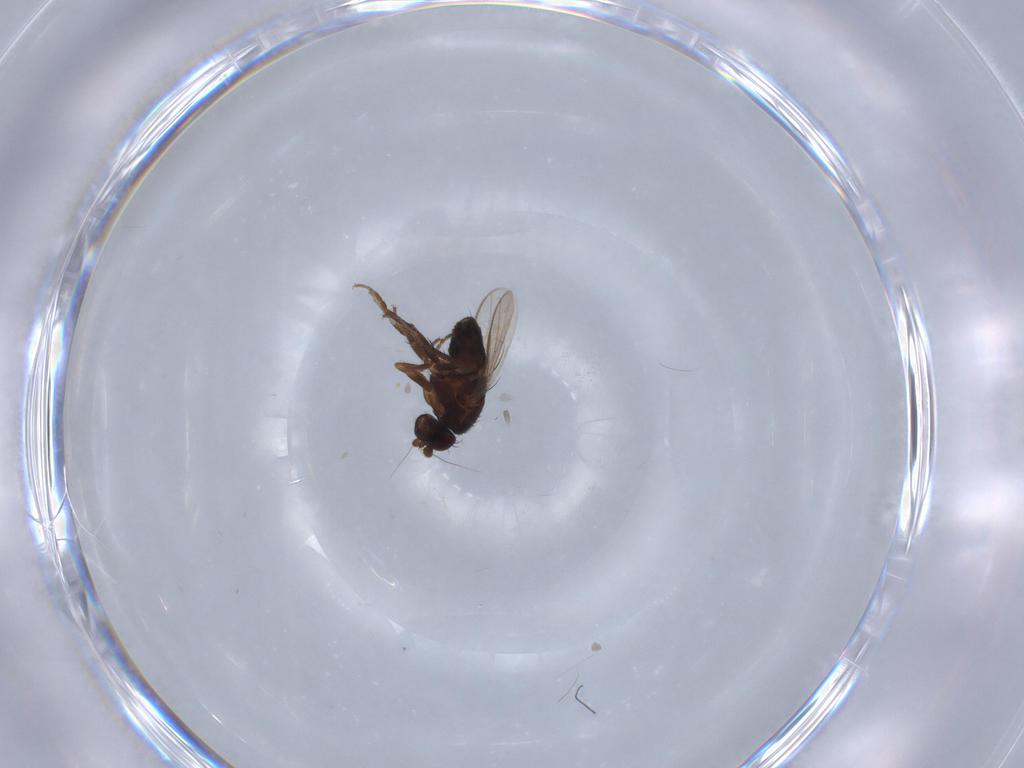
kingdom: Animalia
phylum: Arthropoda
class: Insecta
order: Diptera
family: Sphaeroceridae
